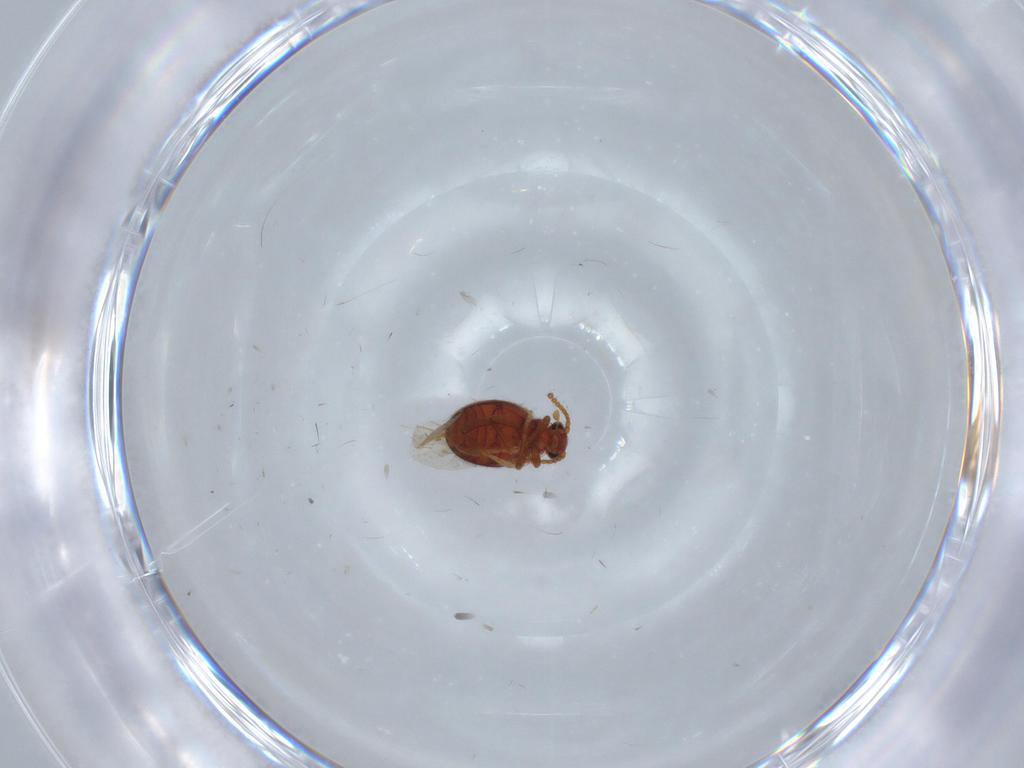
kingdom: Animalia
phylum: Arthropoda
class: Insecta
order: Coleoptera
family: Aderidae
